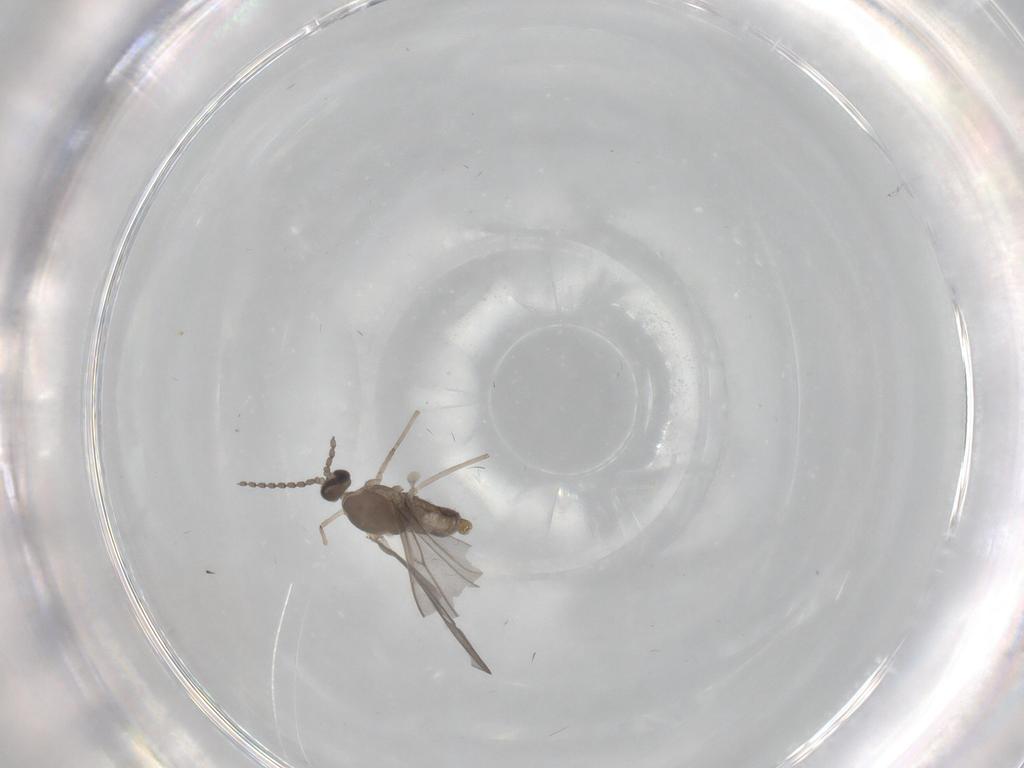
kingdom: Animalia
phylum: Arthropoda
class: Insecta
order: Diptera
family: Cecidomyiidae
